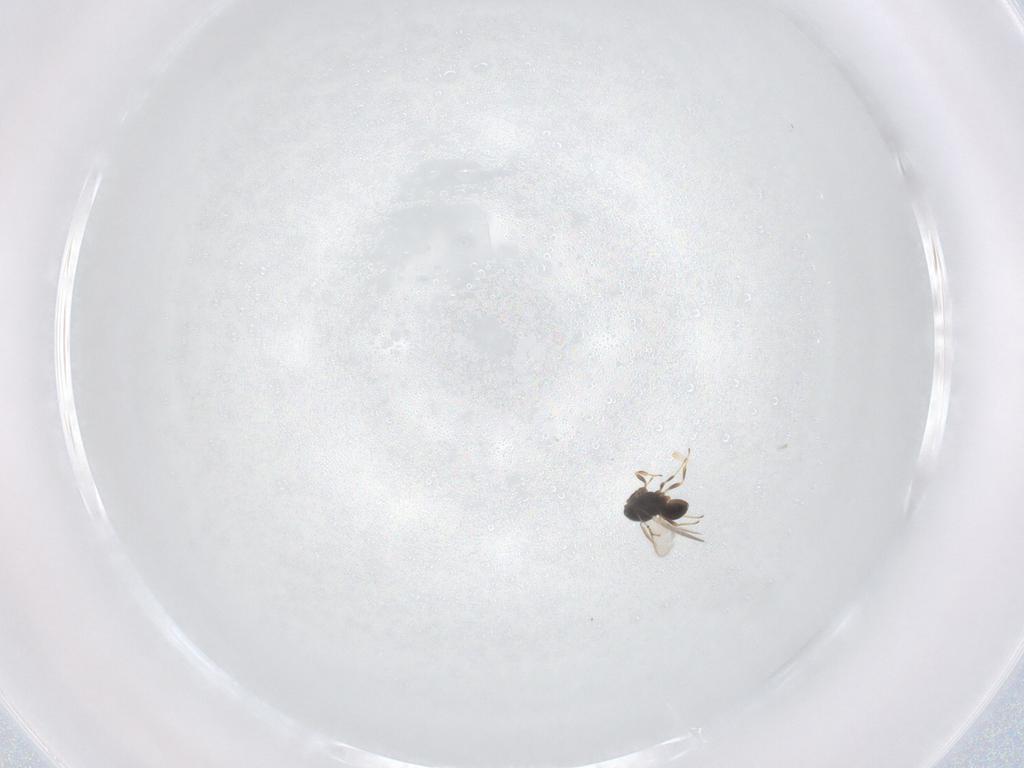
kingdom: Animalia
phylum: Arthropoda
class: Insecta
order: Hymenoptera
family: Scelionidae
